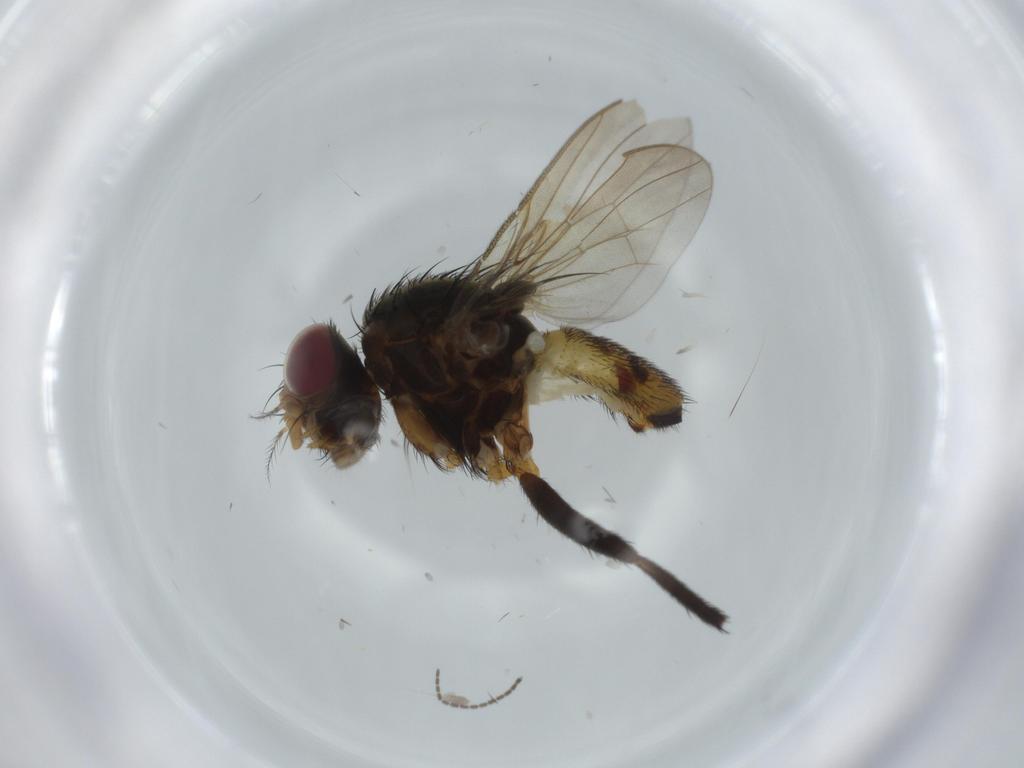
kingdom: Animalia
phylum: Arthropoda
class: Insecta
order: Diptera
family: Anthomyiidae
